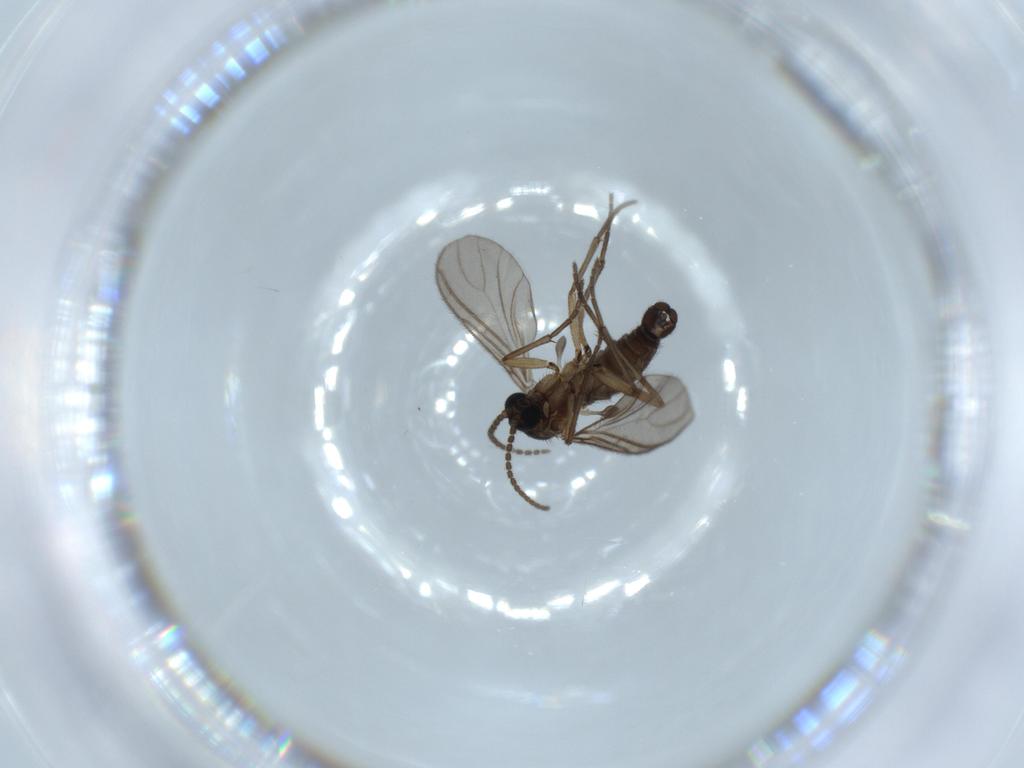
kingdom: Animalia
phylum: Arthropoda
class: Insecta
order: Diptera
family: Sciaridae
